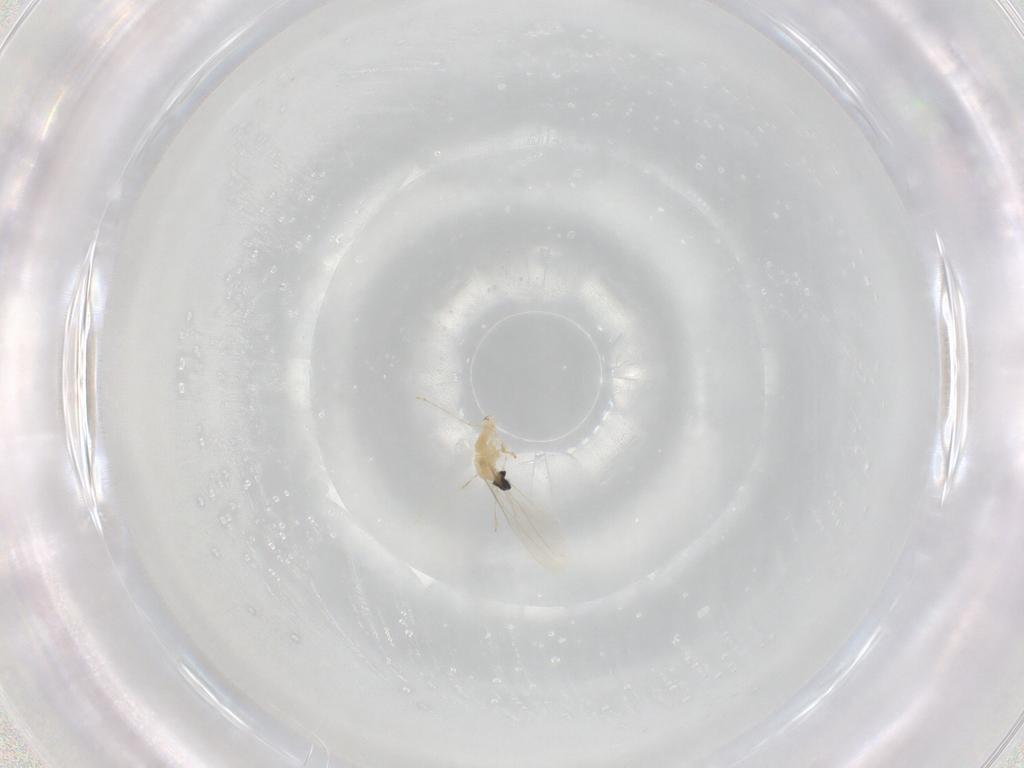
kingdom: Animalia
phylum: Arthropoda
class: Insecta
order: Diptera
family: Cecidomyiidae
